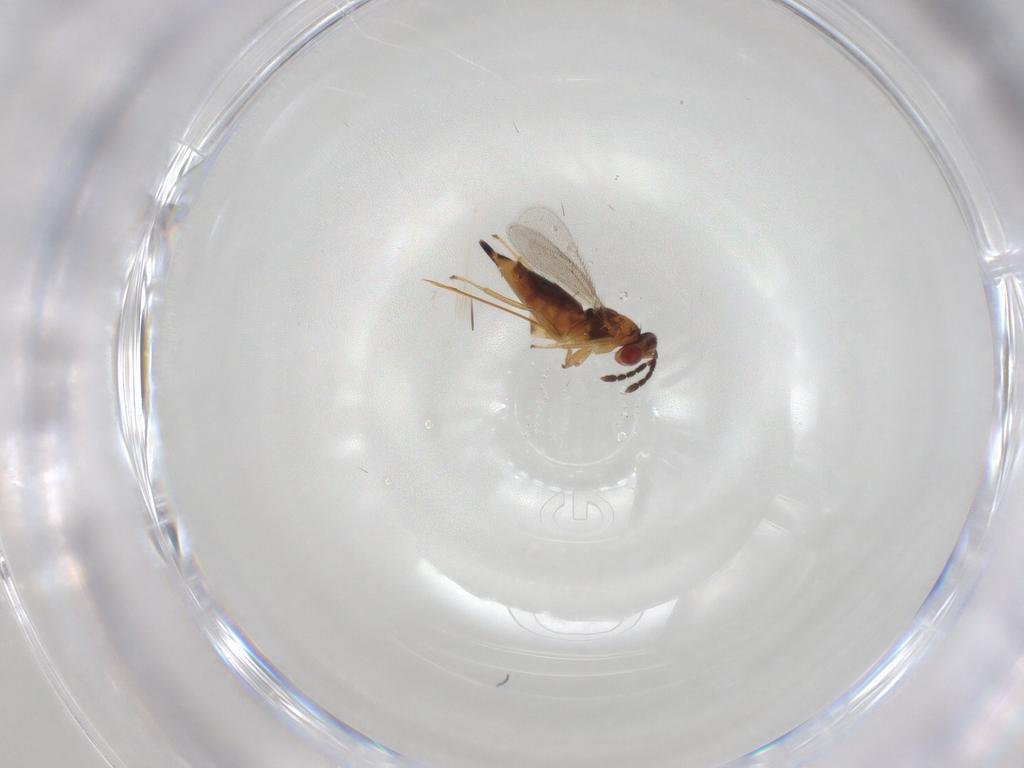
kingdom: Animalia
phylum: Arthropoda
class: Insecta
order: Hymenoptera
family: Eulophidae
